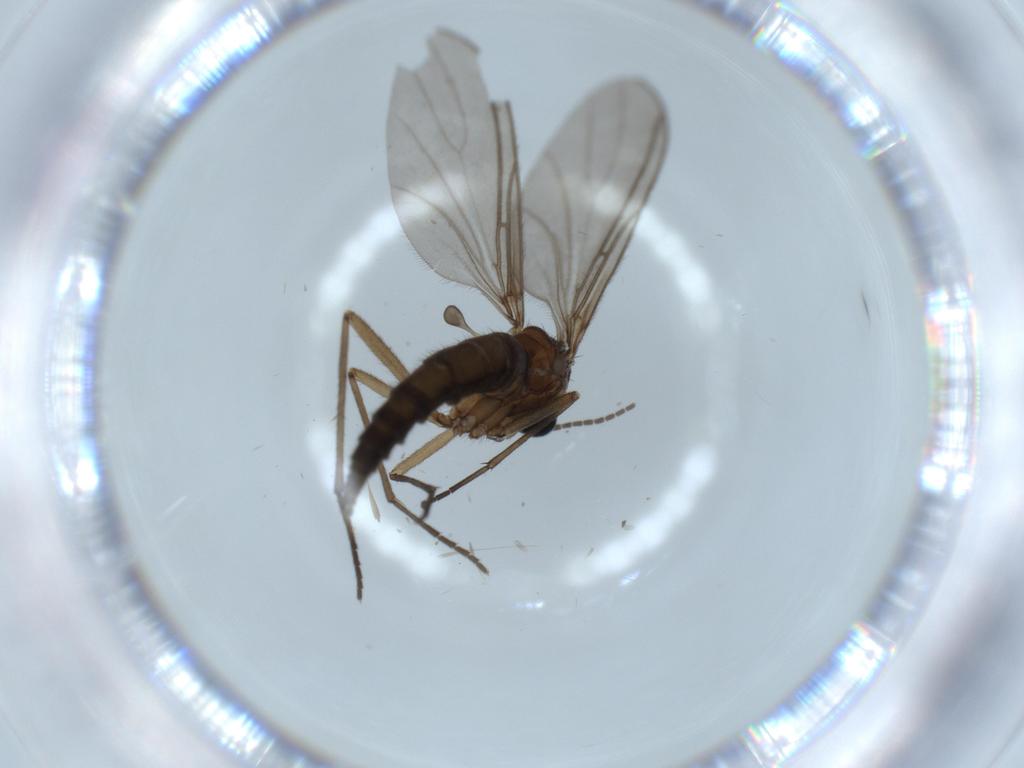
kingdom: Animalia
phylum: Arthropoda
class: Insecta
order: Diptera
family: Sciaridae
